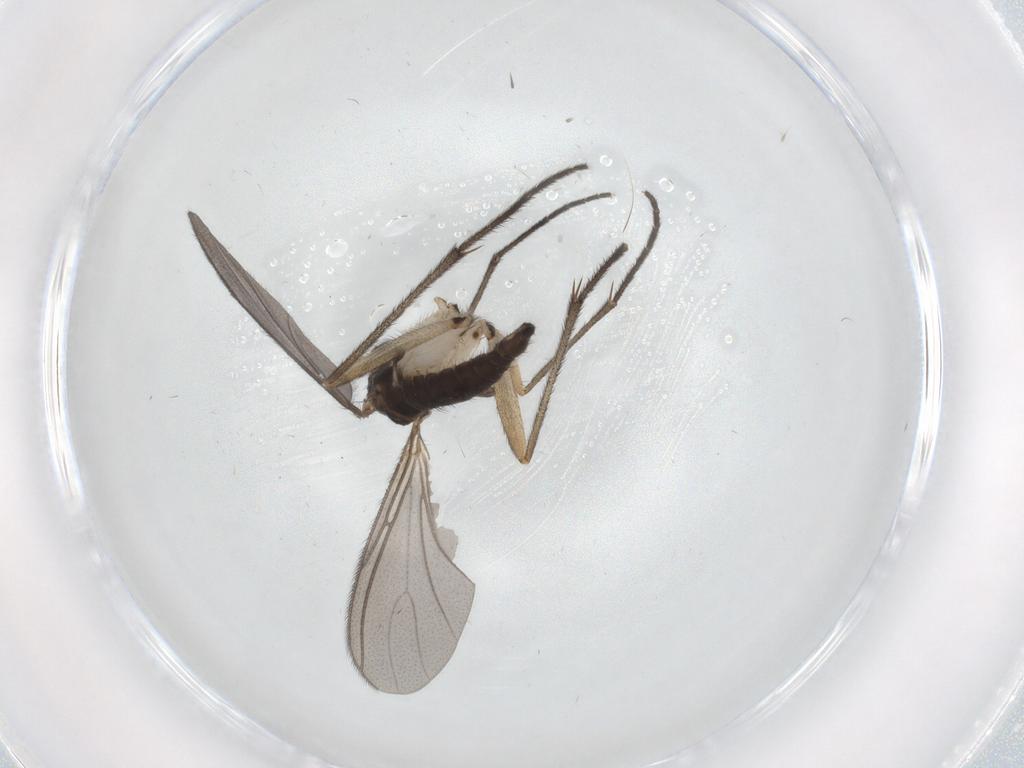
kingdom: Animalia
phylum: Arthropoda
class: Insecta
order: Diptera
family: Sciaridae
